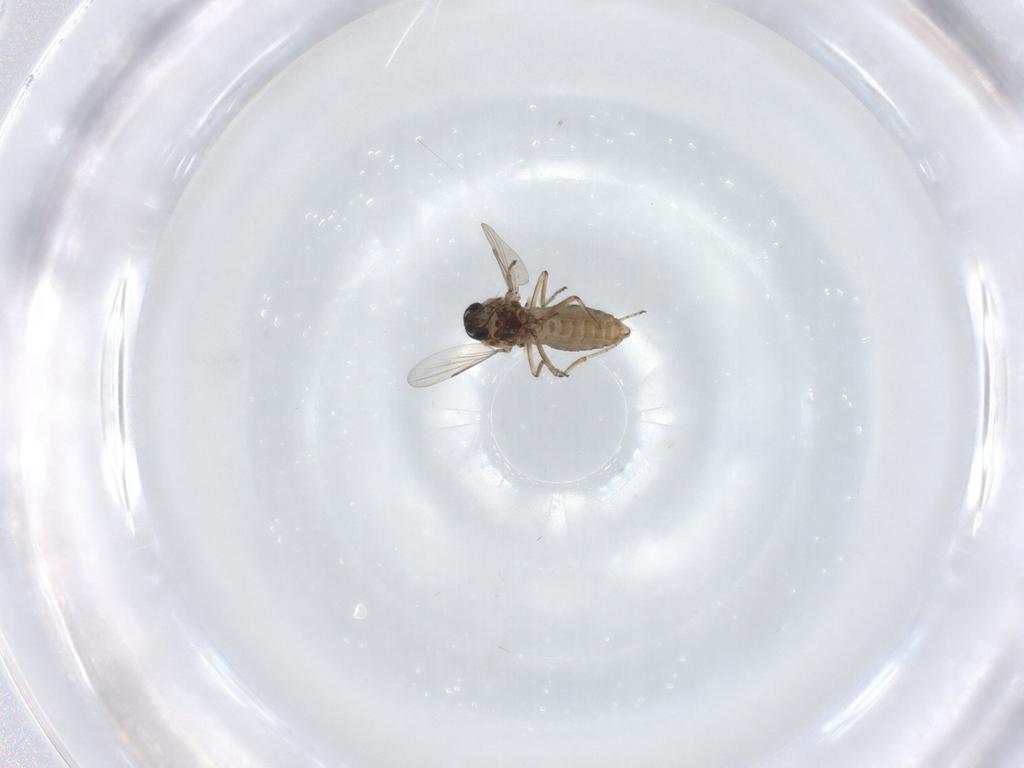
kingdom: Animalia
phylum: Arthropoda
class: Insecta
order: Diptera
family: Ceratopogonidae
